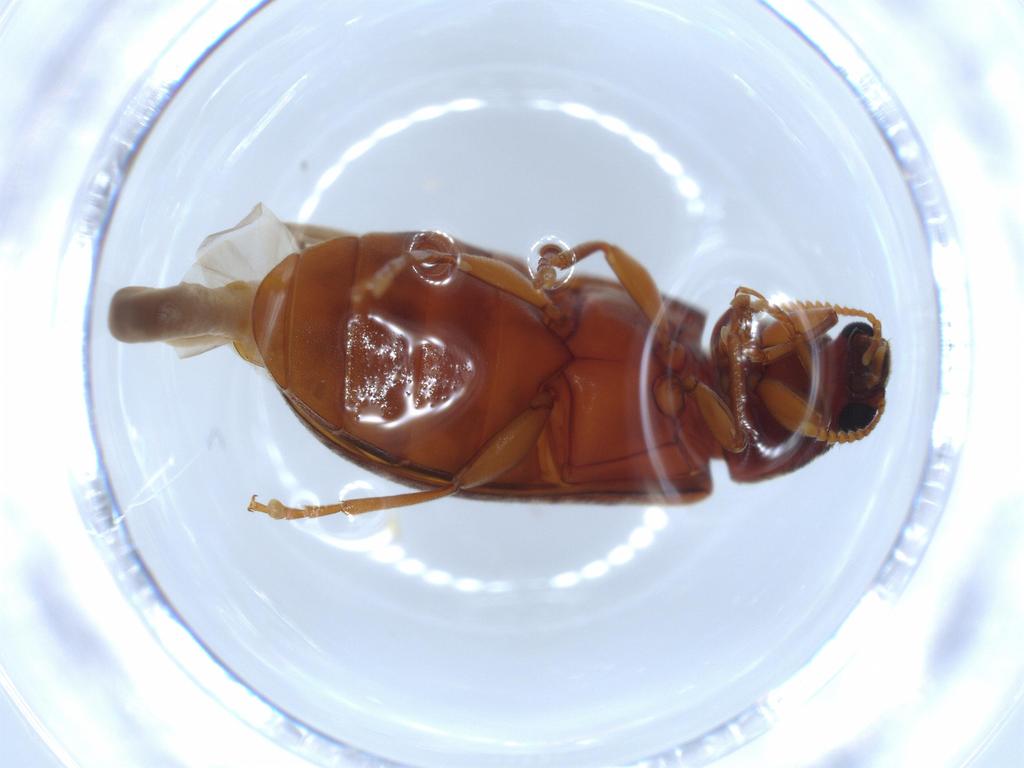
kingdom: Animalia
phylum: Arthropoda
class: Insecta
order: Coleoptera
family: Mycteridae
